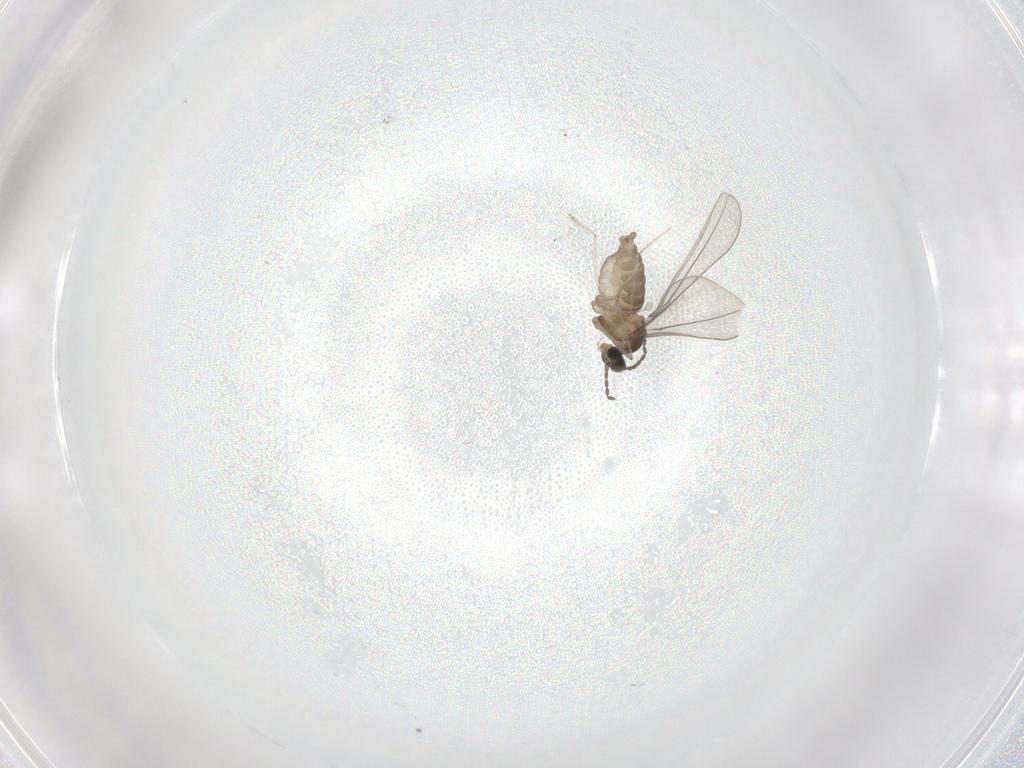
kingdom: Animalia
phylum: Arthropoda
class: Insecta
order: Diptera
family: Cecidomyiidae
